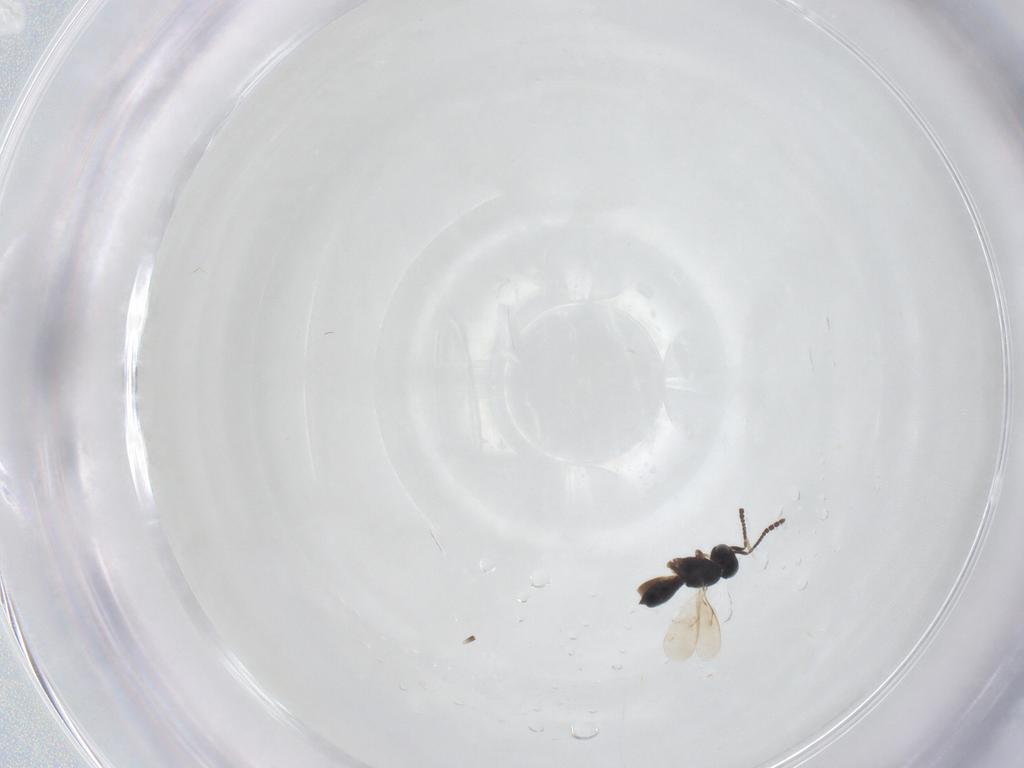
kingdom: Animalia
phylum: Arthropoda
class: Insecta
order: Hymenoptera
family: Scelionidae
